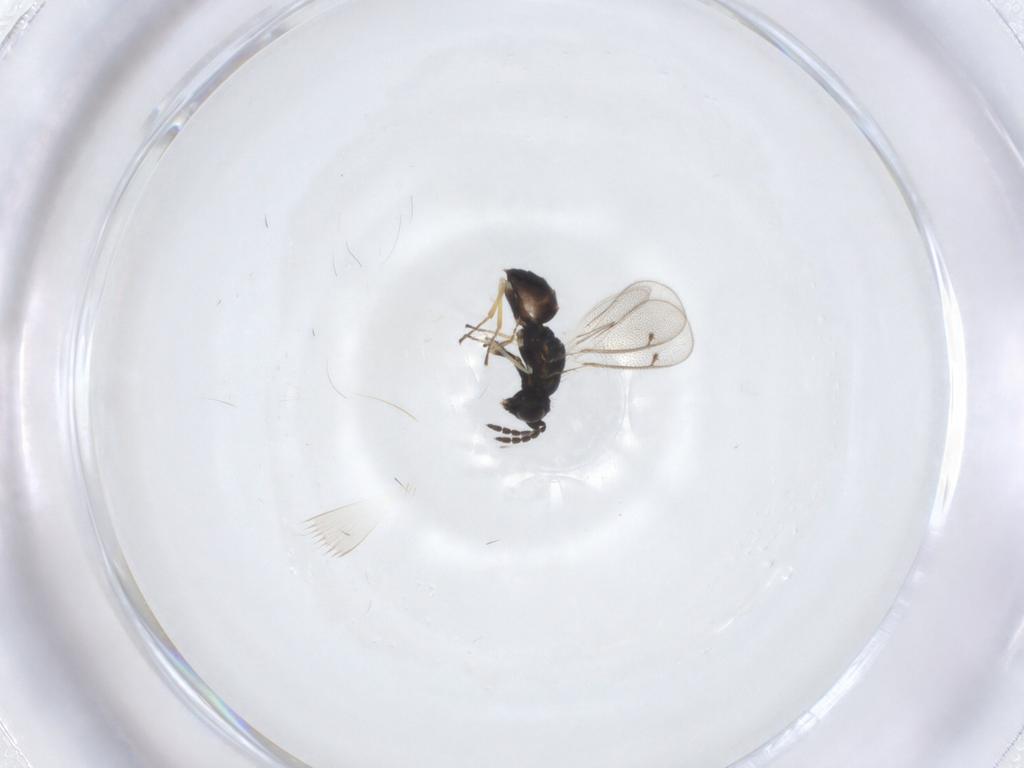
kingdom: Animalia
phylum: Arthropoda
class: Insecta
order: Hymenoptera
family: Eulophidae
